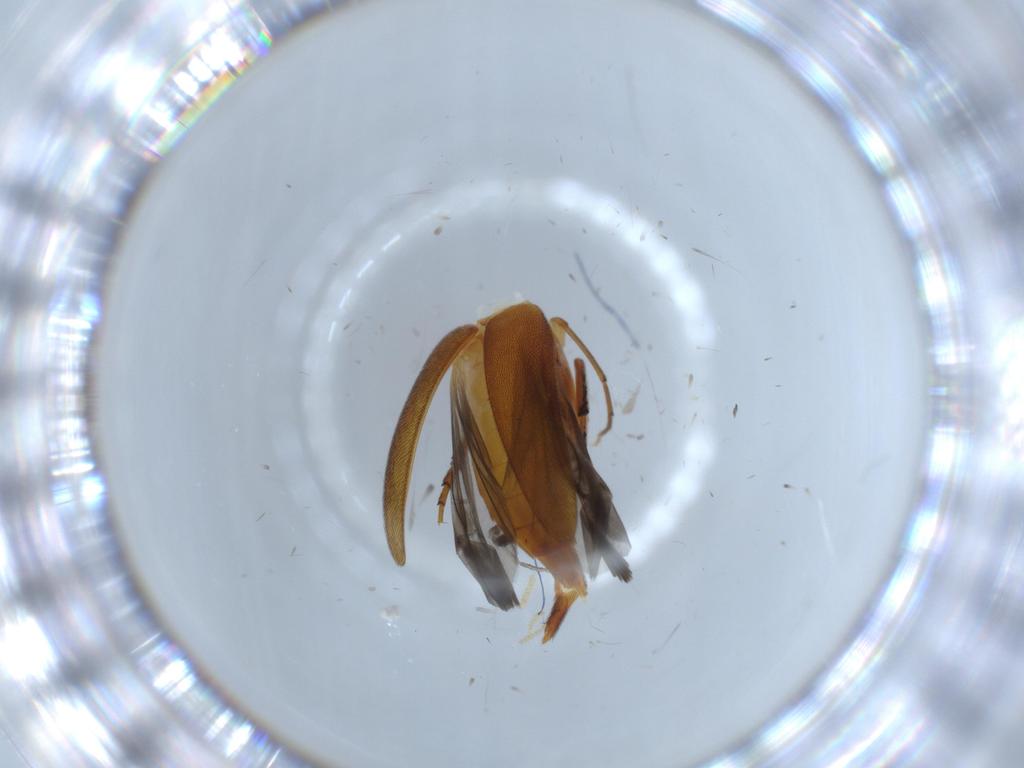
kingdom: Animalia
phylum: Arthropoda
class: Insecta
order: Coleoptera
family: Mordellidae
